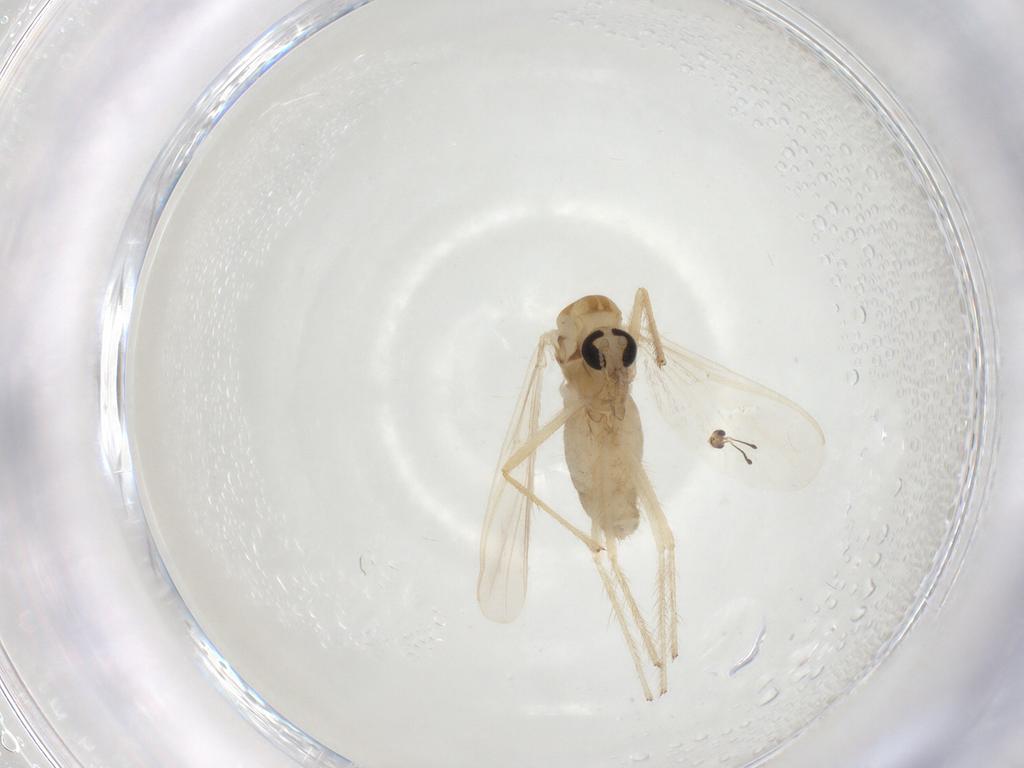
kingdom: Animalia
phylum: Arthropoda
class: Insecta
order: Diptera
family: Chironomidae
